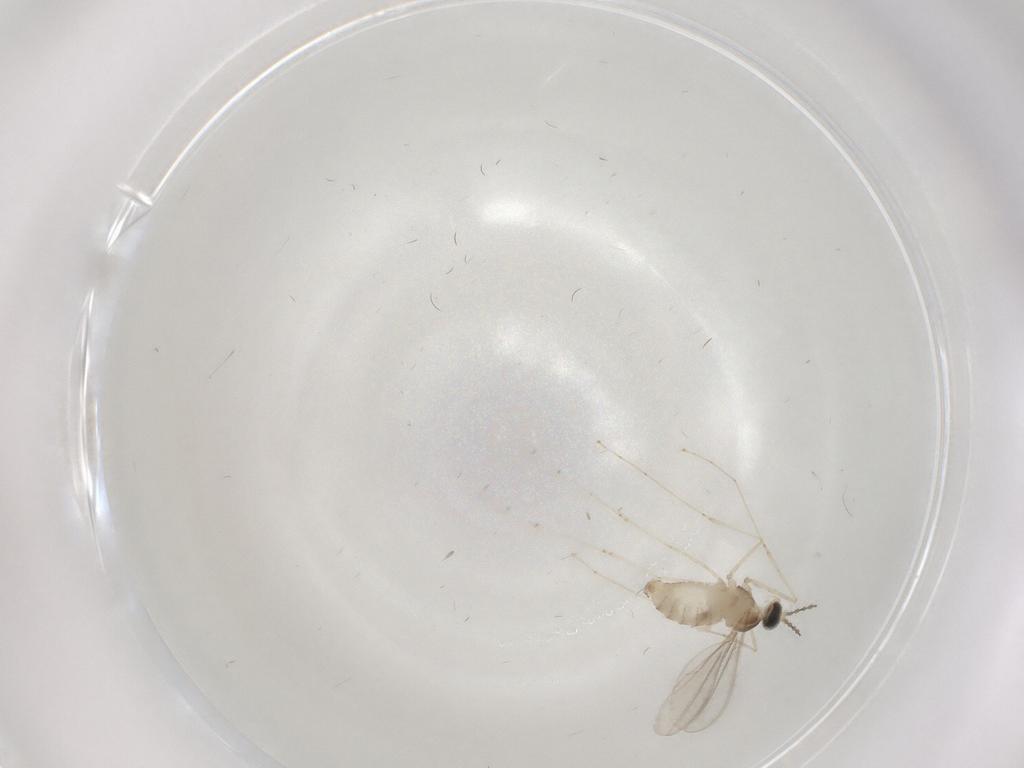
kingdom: Animalia
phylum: Arthropoda
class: Insecta
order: Diptera
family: Cecidomyiidae
